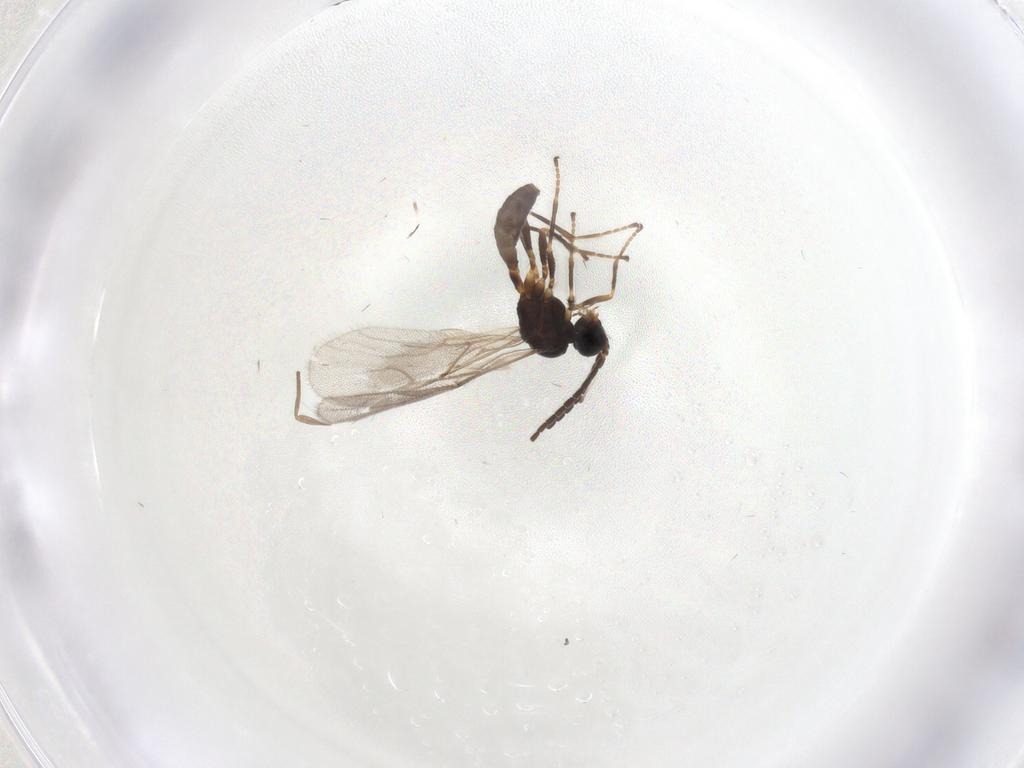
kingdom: Animalia
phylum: Arthropoda
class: Insecta
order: Hymenoptera
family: Braconidae
